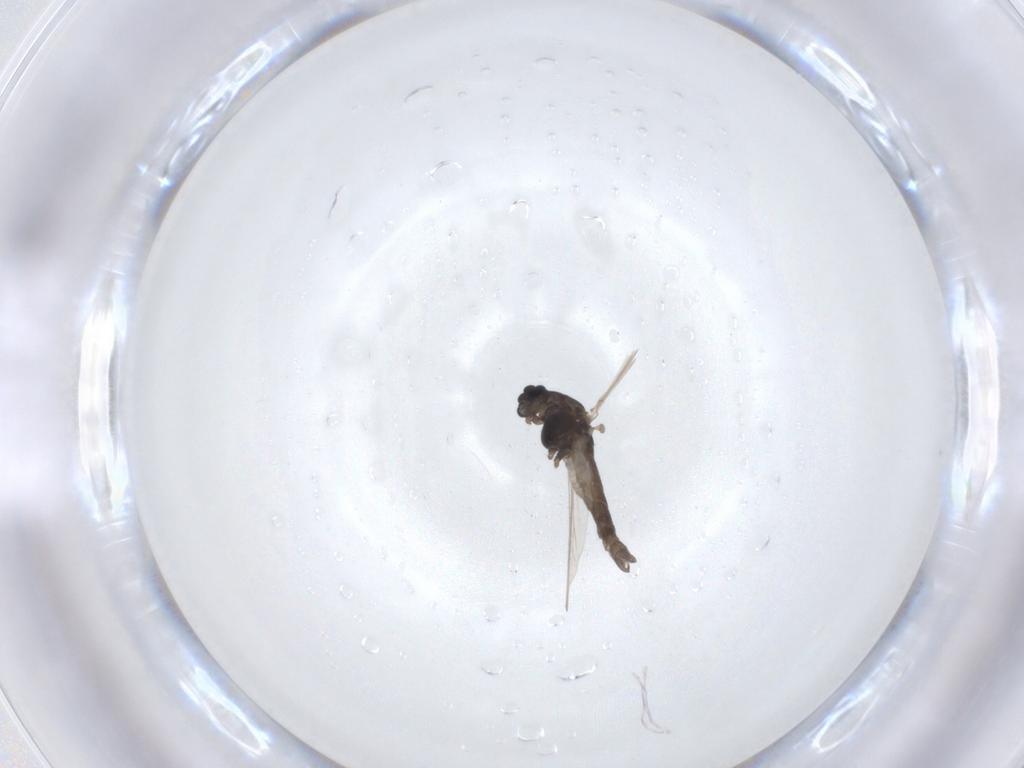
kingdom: Animalia
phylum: Arthropoda
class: Insecta
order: Diptera
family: Chironomidae
